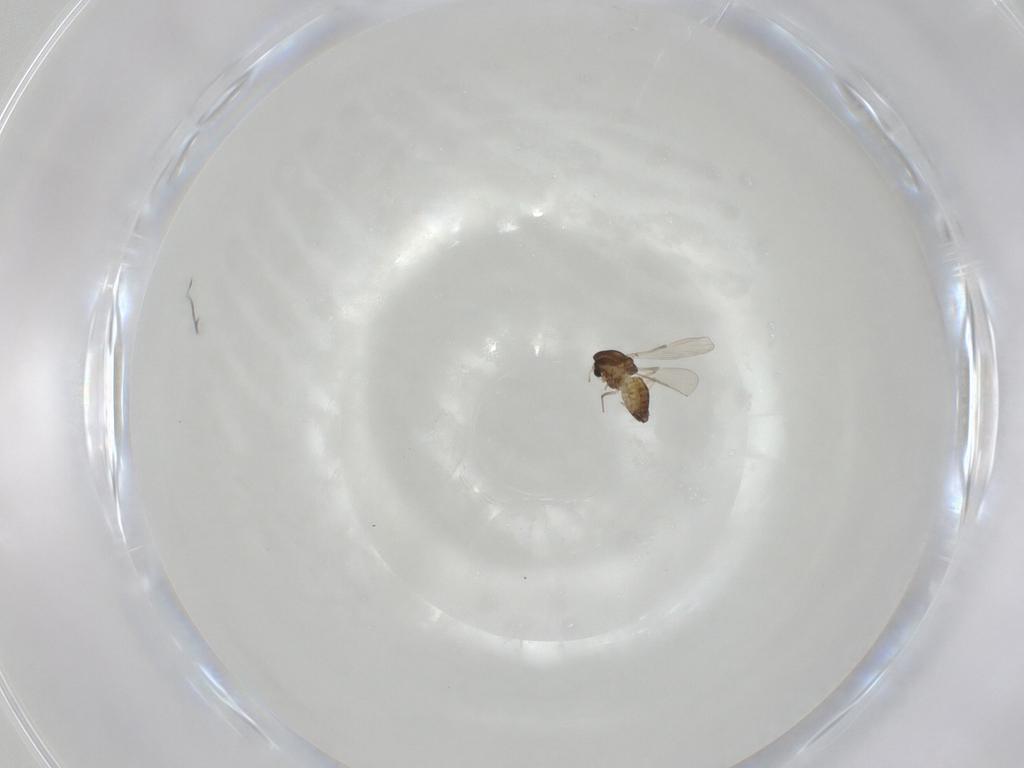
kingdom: Animalia
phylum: Arthropoda
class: Insecta
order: Diptera
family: Chironomidae
